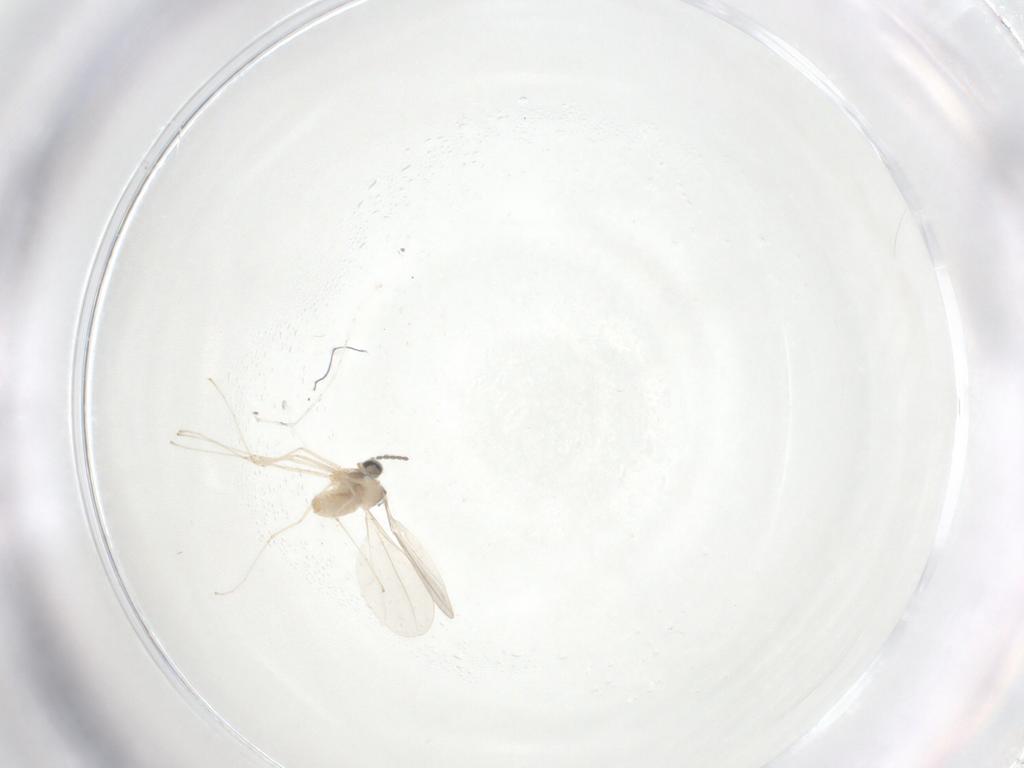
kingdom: Animalia
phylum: Arthropoda
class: Insecta
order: Diptera
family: Cecidomyiidae
